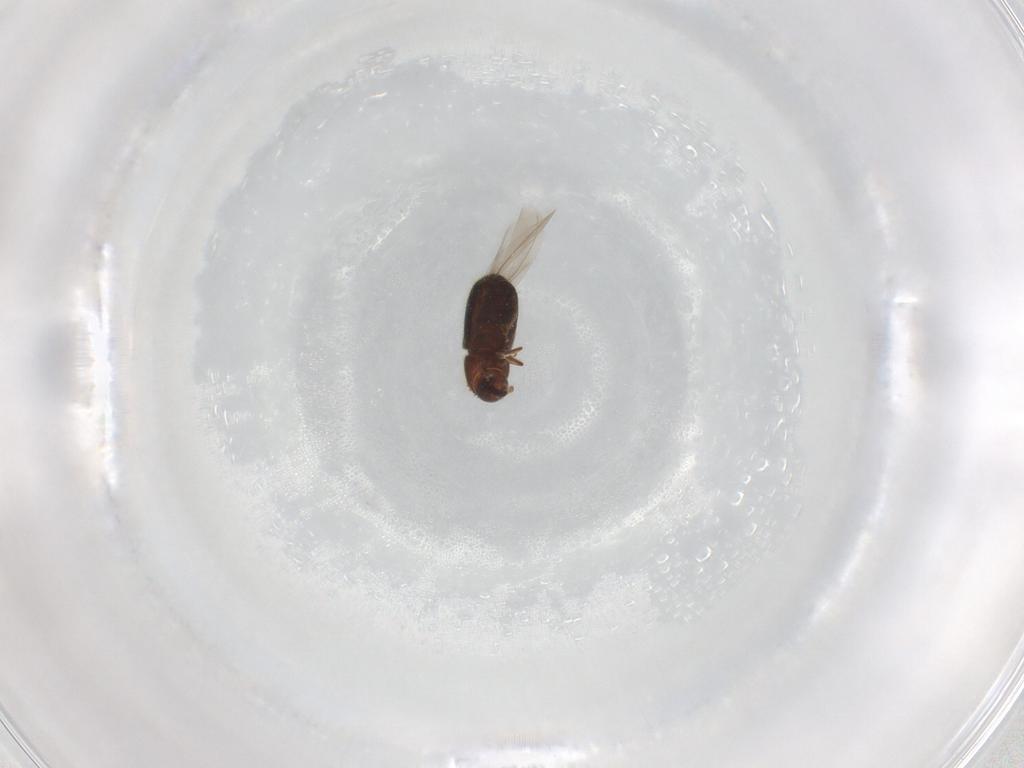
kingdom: Animalia
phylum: Arthropoda
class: Insecta
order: Coleoptera
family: Curculionidae
